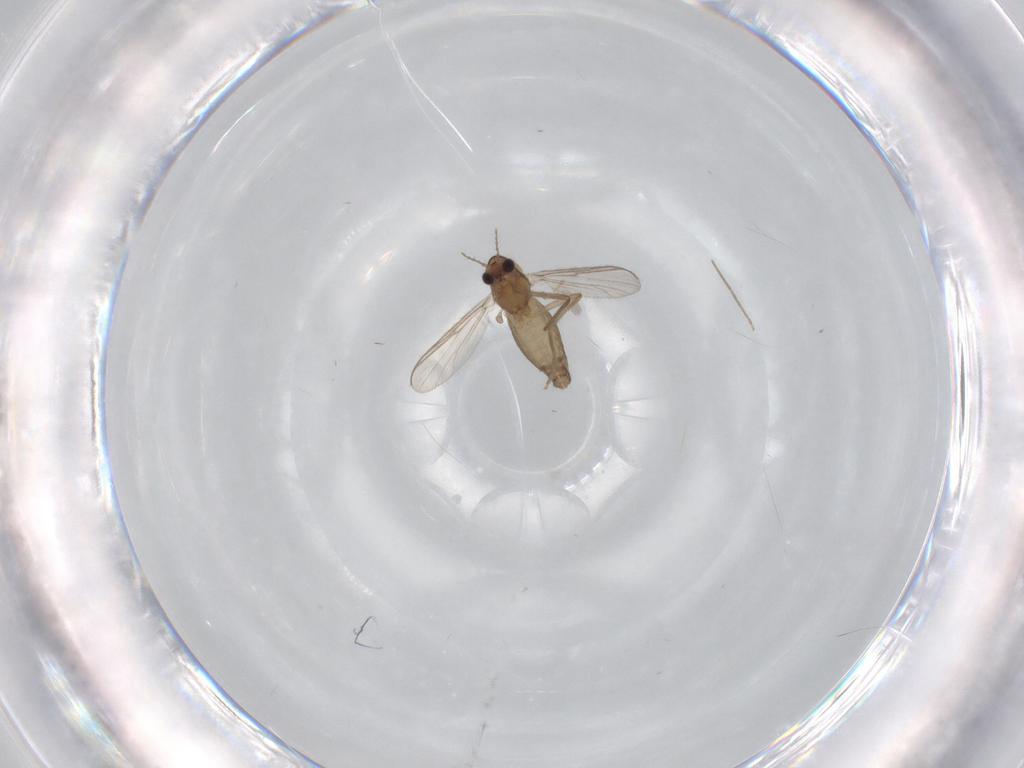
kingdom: Animalia
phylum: Arthropoda
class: Insecta
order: Diptera
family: Chironomidae
